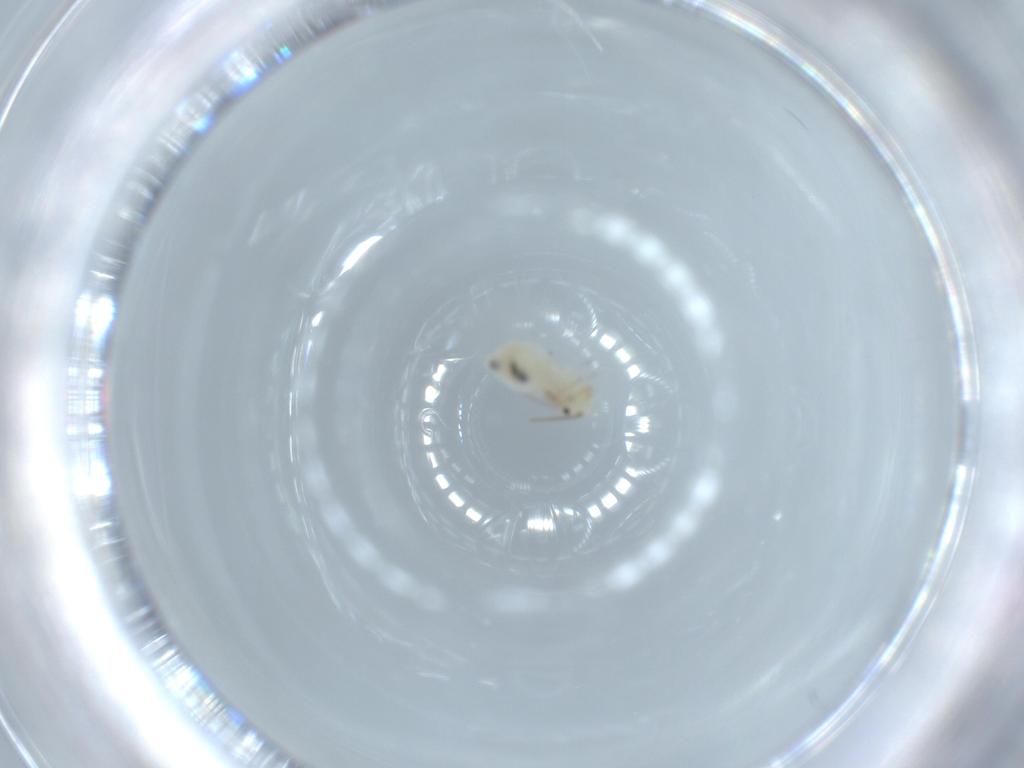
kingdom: Animalia
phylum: Arthropoda
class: Insecta
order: Psocodea
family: Caeciliusidae
